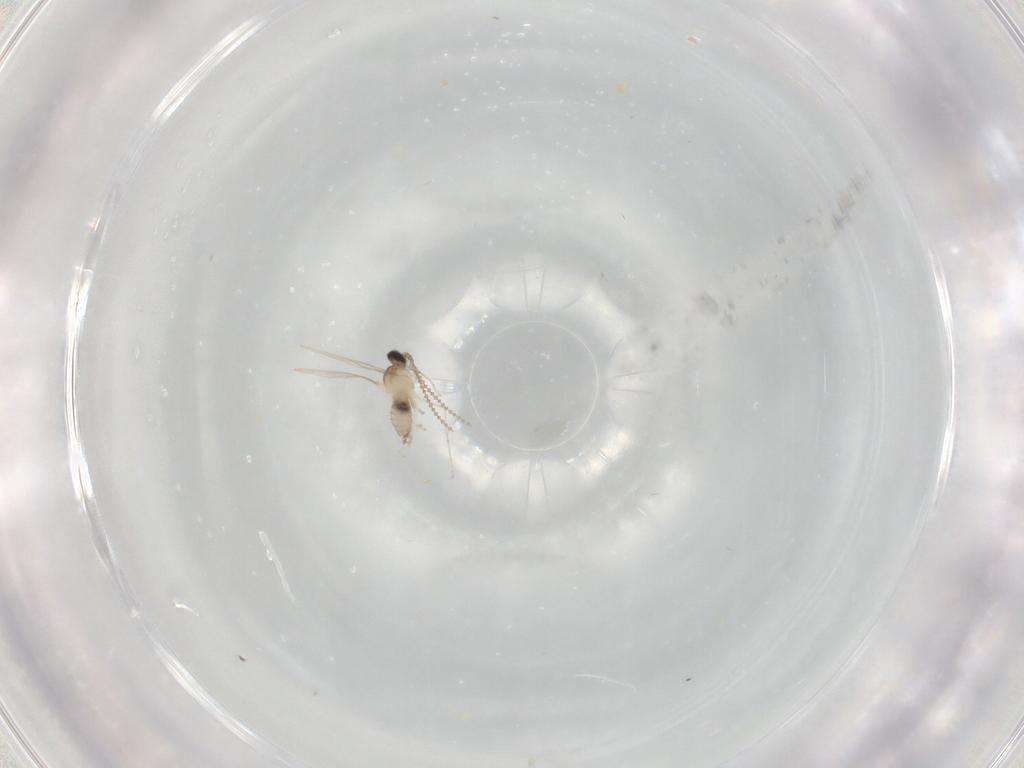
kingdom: Animalia
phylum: Arthropoda
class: Insecta
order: Diptera
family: Cecidomyiidae
